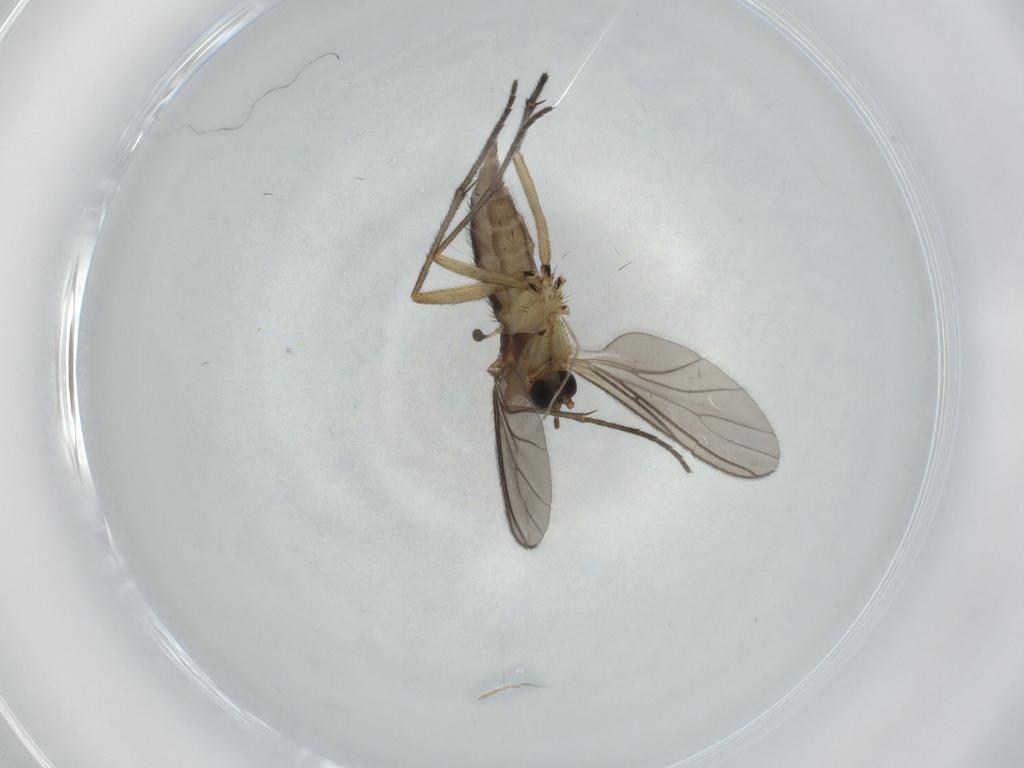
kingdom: Animalia
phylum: Arthropoda
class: Insecta
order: Diptera
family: Sciaridae
